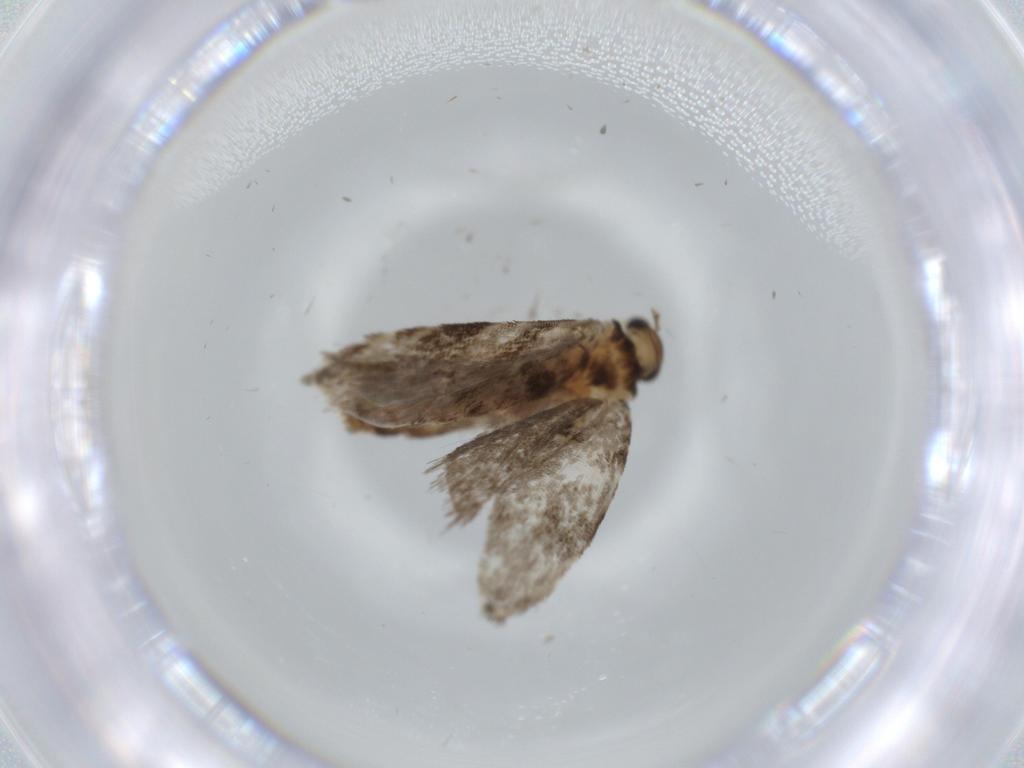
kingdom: Animalia
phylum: Arthropoda
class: Insecta
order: Lepidoptera
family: Tineidae
